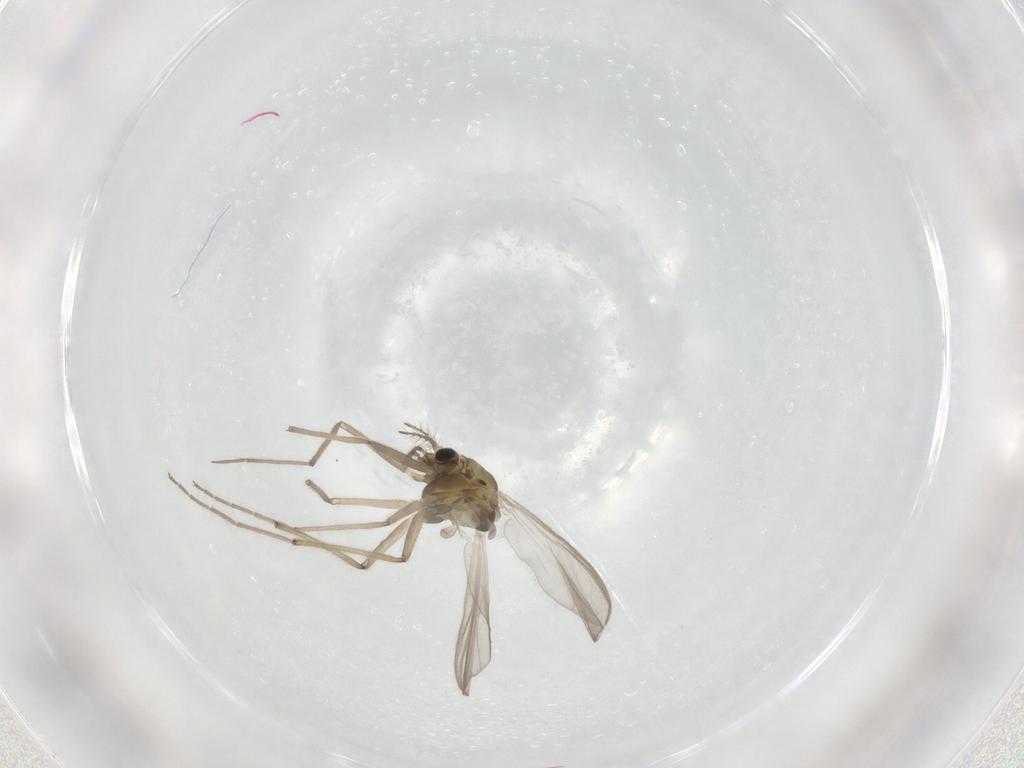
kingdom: Animalia
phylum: Arthropoda
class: Insecta
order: Diptera
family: Chironomidae
